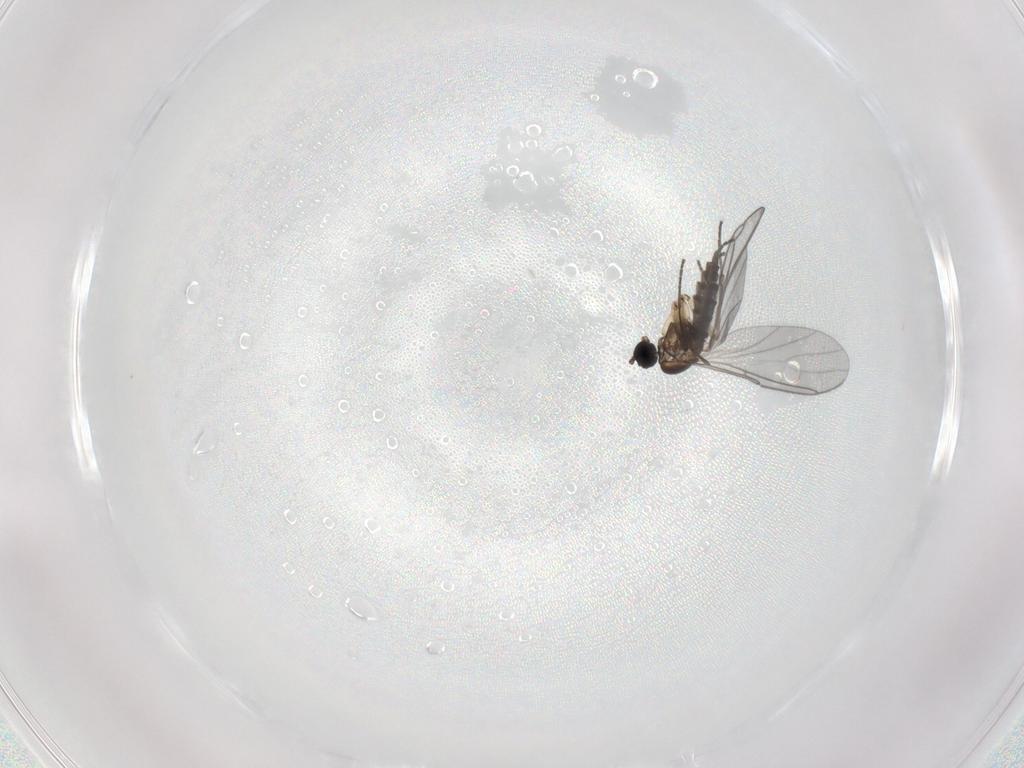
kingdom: Animalia
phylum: Arthropoda
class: Insecta
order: Diptera
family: Sciaridae
